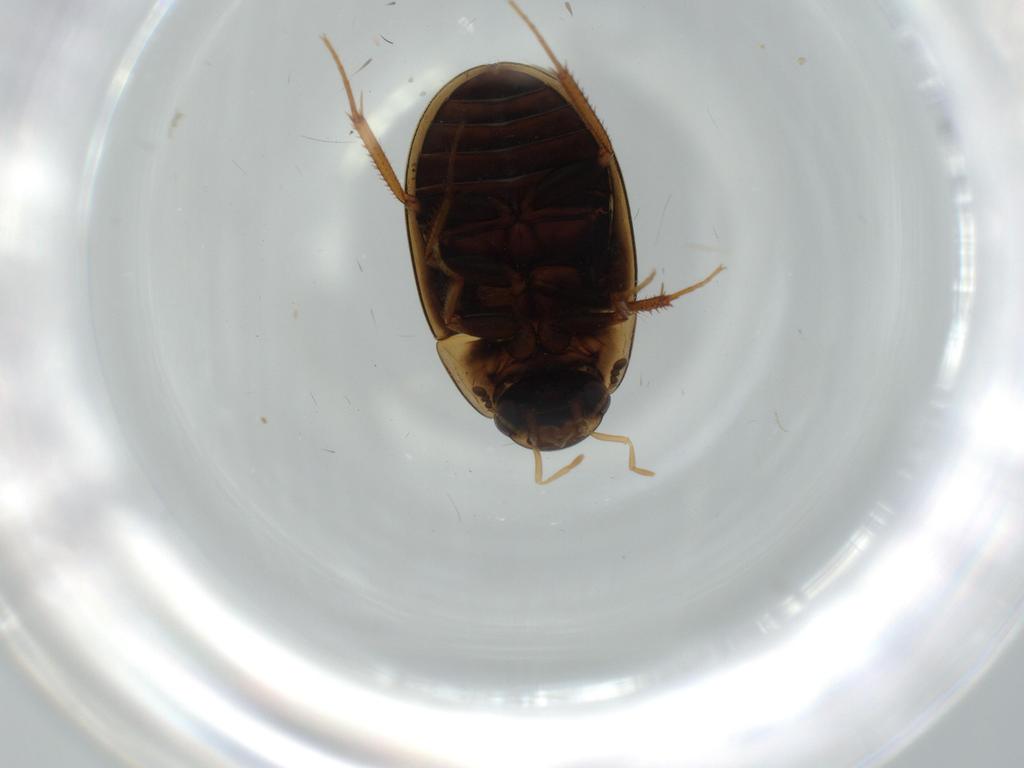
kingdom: Animalia
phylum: Arthropoda
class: Insecta
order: Coleoptera
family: Hydrophilidae
